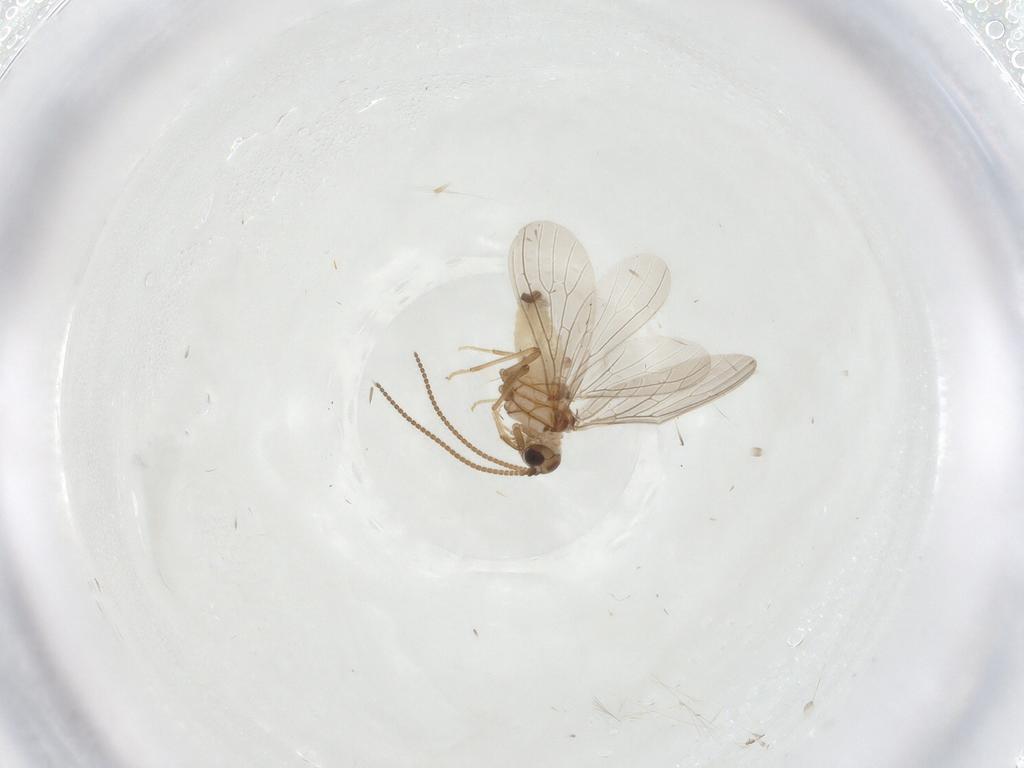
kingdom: Animalia
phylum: Arthropoda
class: Insecta
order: Neuroptera
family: Coniopterygidae
